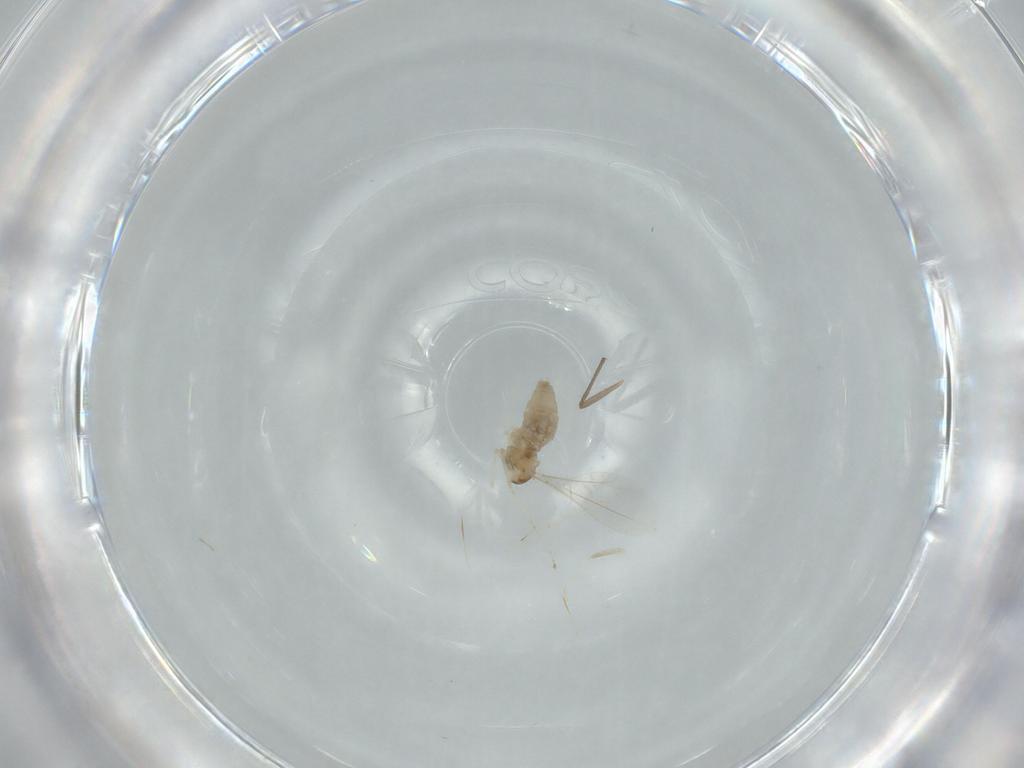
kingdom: Animalia
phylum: Arthropoda
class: Insecta
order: Diptera
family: Cecidomyiidae
